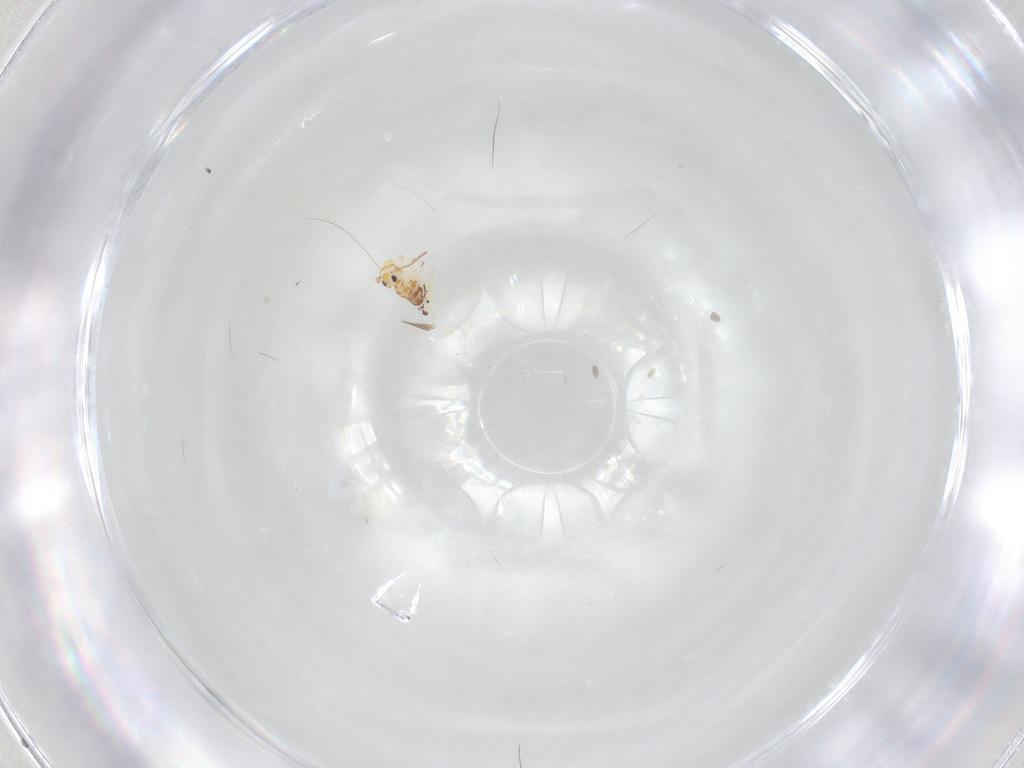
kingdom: Animalia
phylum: Arthropoda
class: Collembola
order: Symphypleona
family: Bourletiellidae
